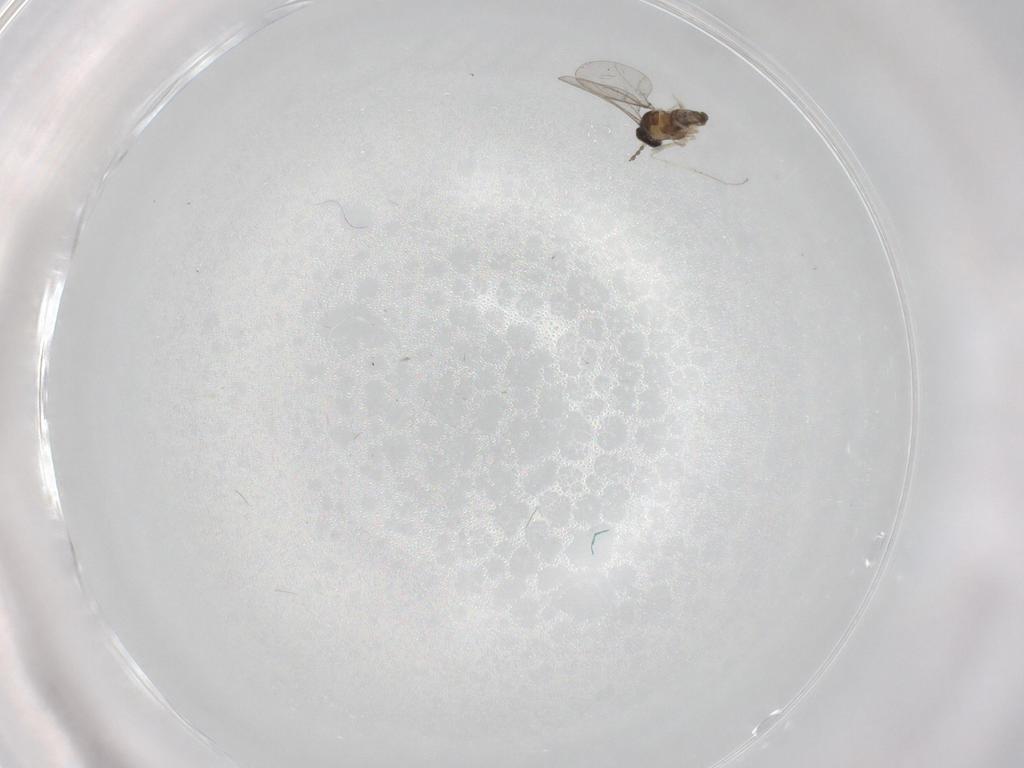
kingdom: Animalia
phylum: Arthropoda
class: Insecta
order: Diptera
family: Cecidomyiidae
